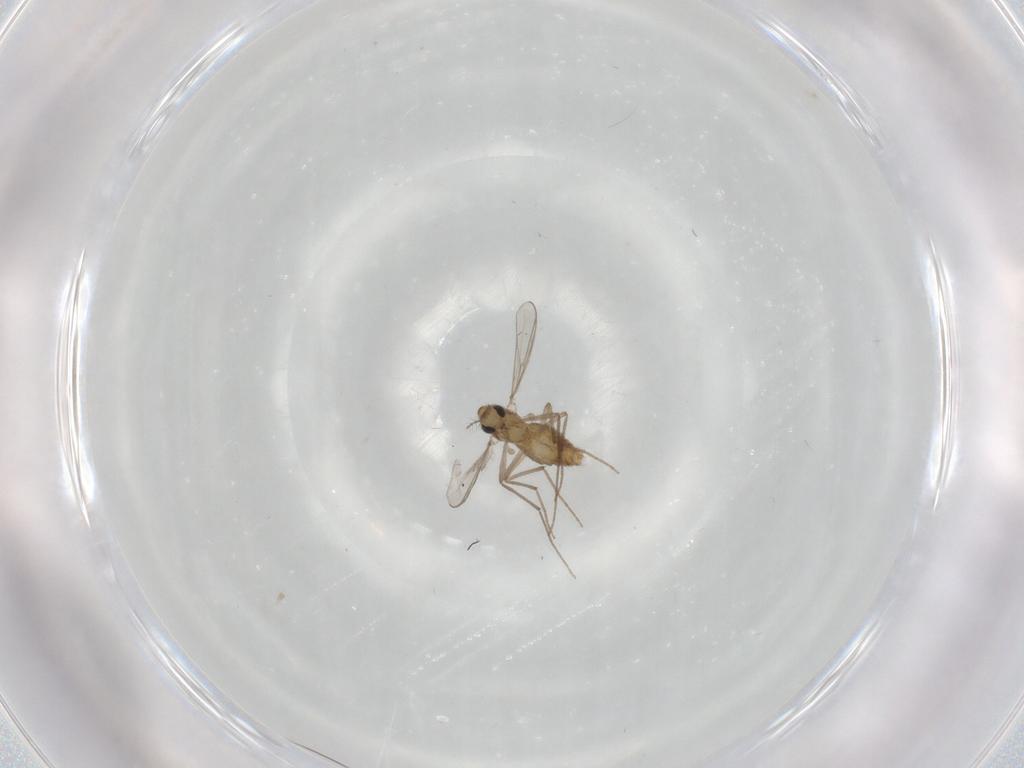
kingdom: Animalia
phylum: Arthropoda
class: Insecta
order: Diptera
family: Chironomidae
